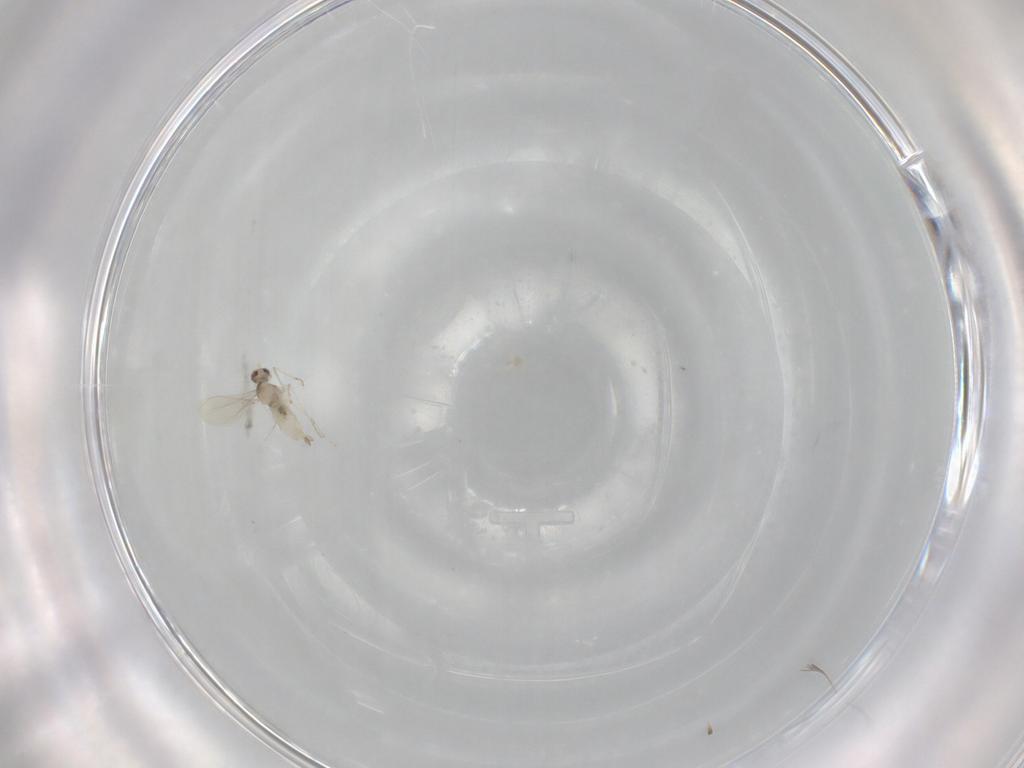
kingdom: Animalia
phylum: Arthropoda
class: Insecta
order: Diptera
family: Cecidomyiidae
